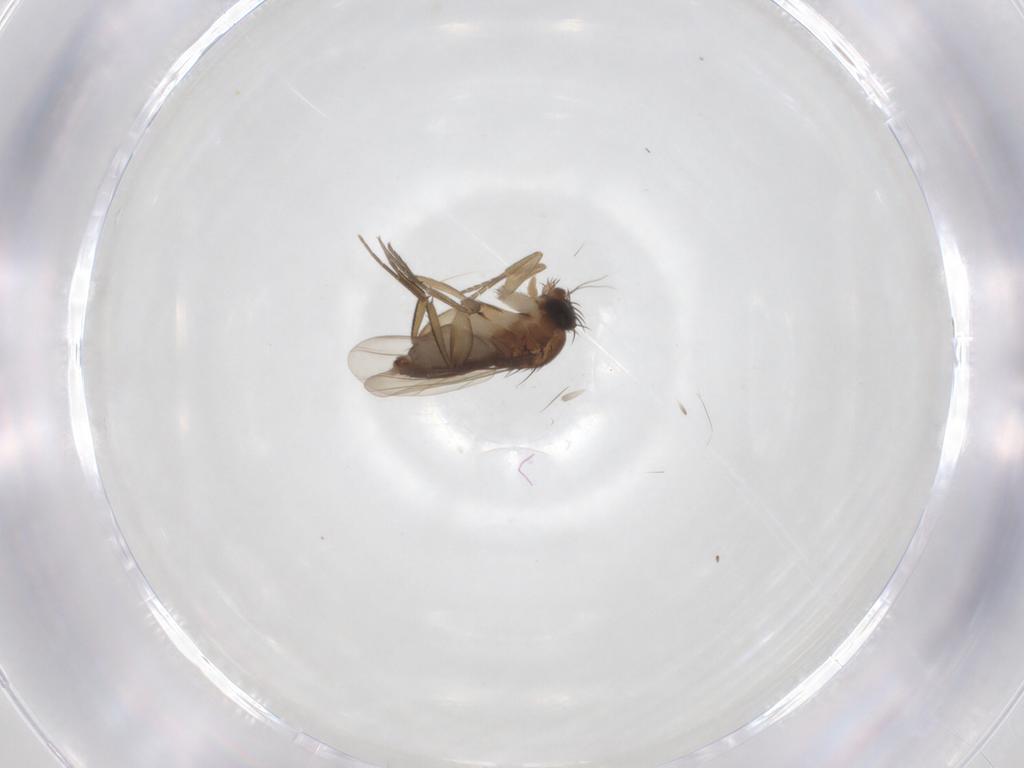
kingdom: Animalia
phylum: Arthropoda
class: Insecta
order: Diptera
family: Phoridae
